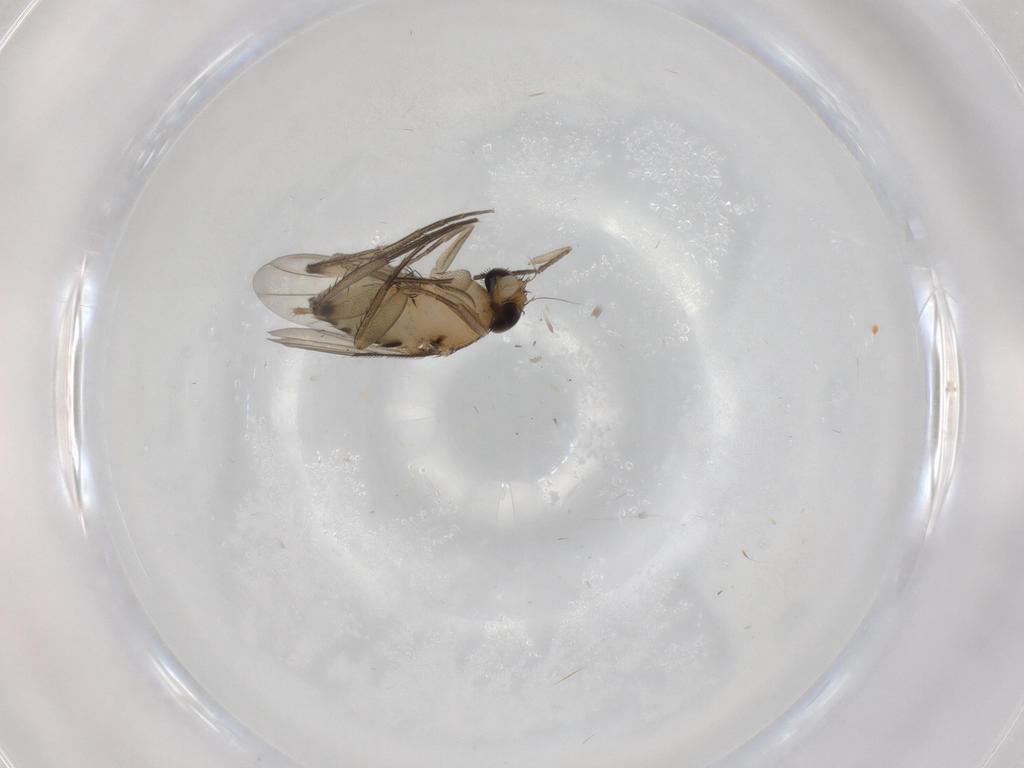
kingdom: Animalia
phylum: Arthropoda
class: Insecta
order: Diptera
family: Phoridae
